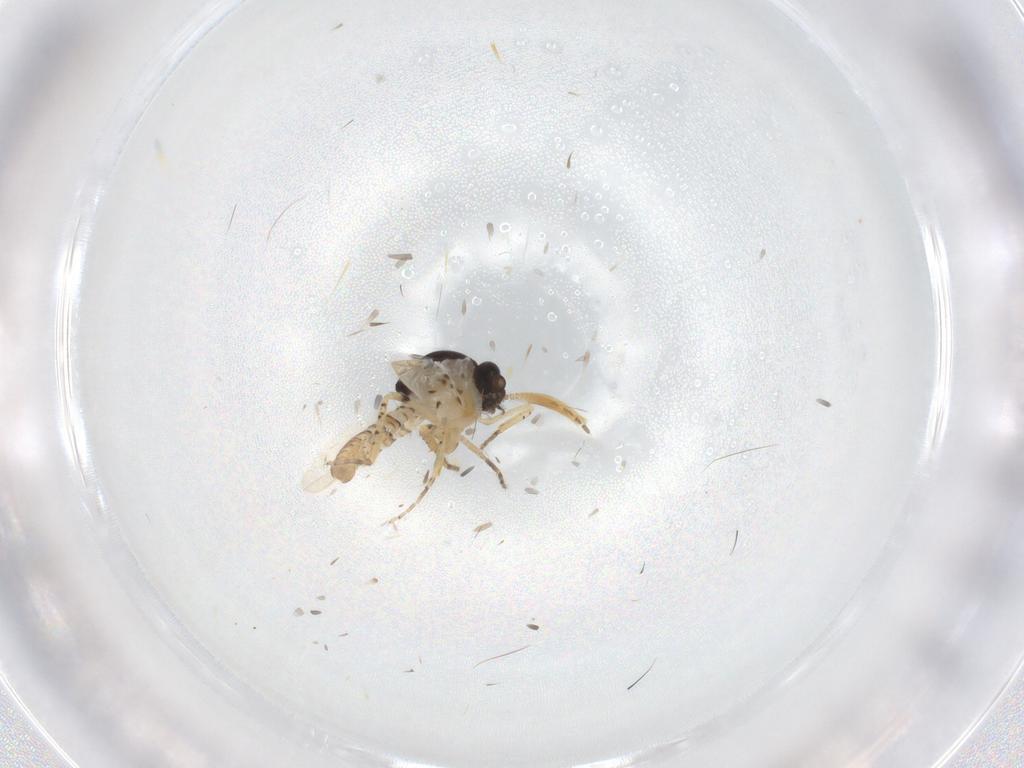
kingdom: Animalia
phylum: Arthropoda
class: Insecta
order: Diptera
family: Ceratopogonidae
